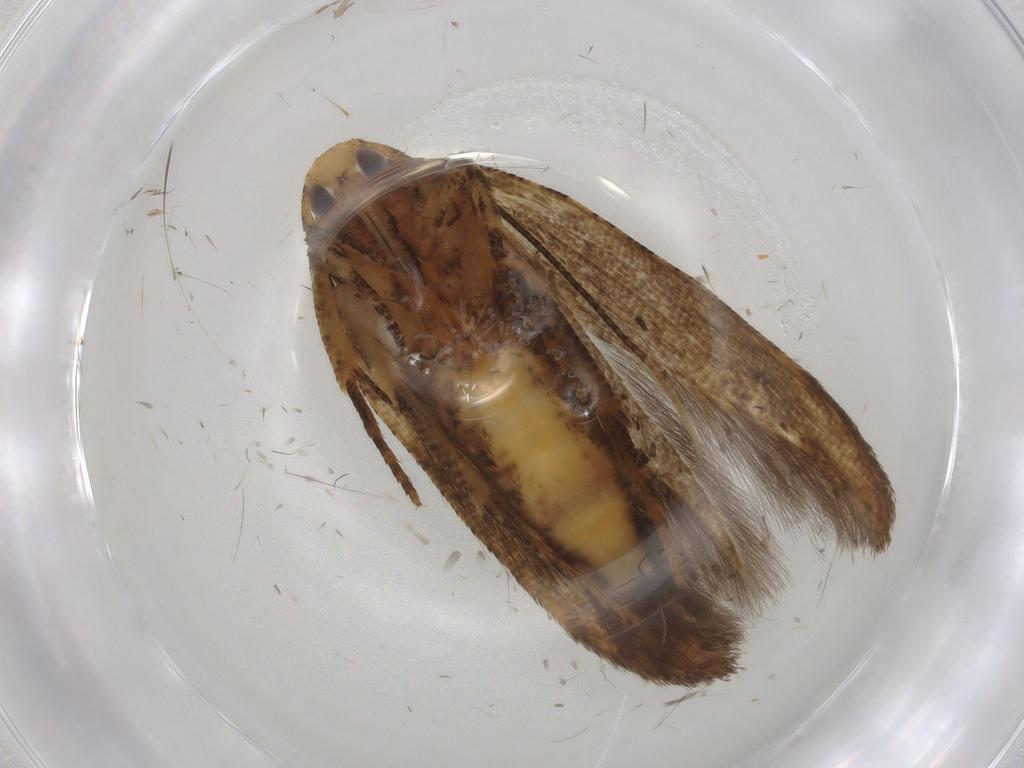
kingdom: Animalia
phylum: Arthropoda
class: Insecta
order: Lepidoptera
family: Cosmopterigidae
